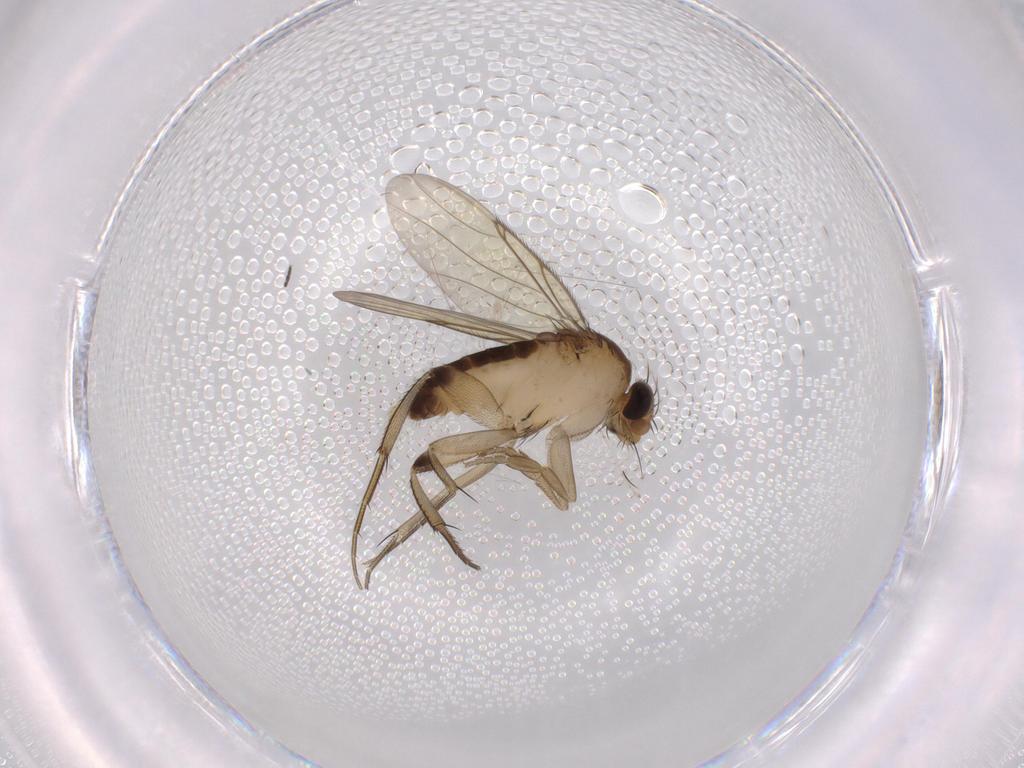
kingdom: Animalia
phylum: Arthropoda
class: Insecta
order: Diptera
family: Phoridae
